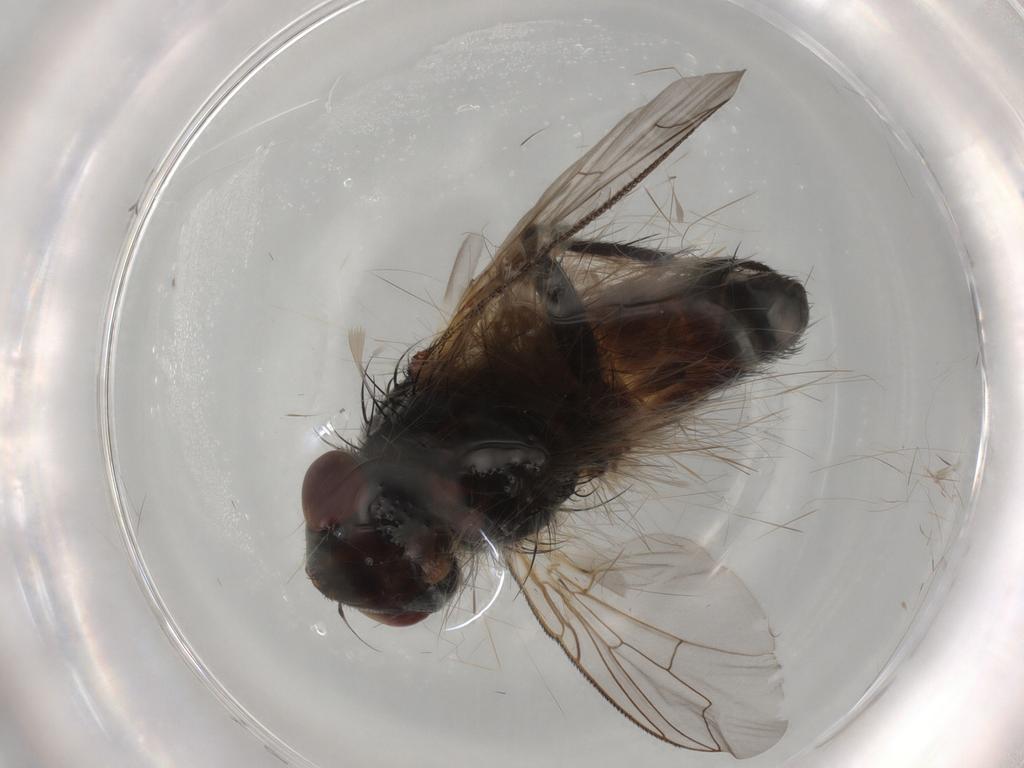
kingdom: Animalia
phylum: Arthropoda
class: Insecta
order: Diptera
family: Sarcophagidae
